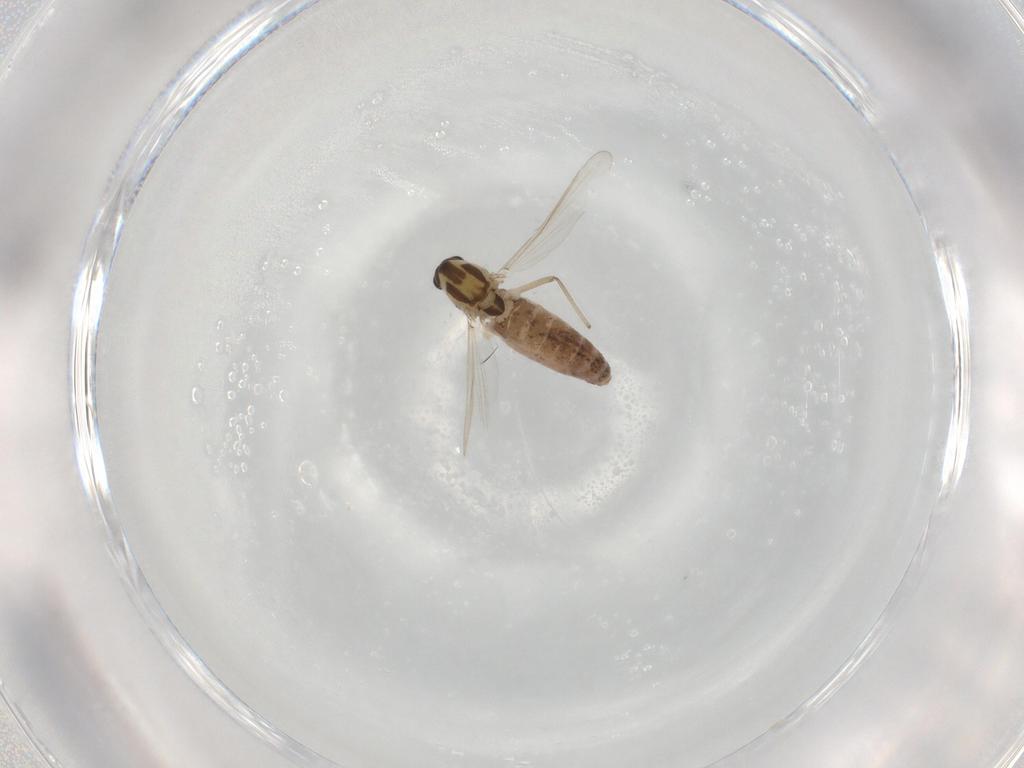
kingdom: Animalia
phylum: Arthropoda
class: Insecta
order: Diptera
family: Chironomidae
